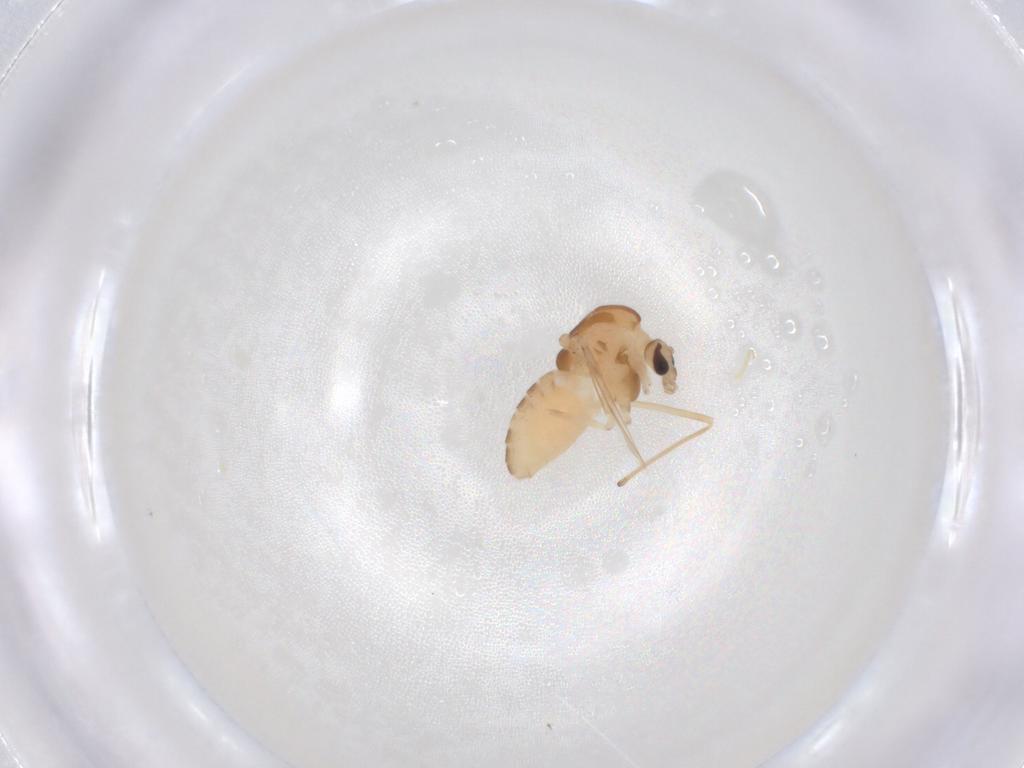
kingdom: Animalia
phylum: Arthropoda
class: Insecta
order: Diptera
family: Chironomidae
